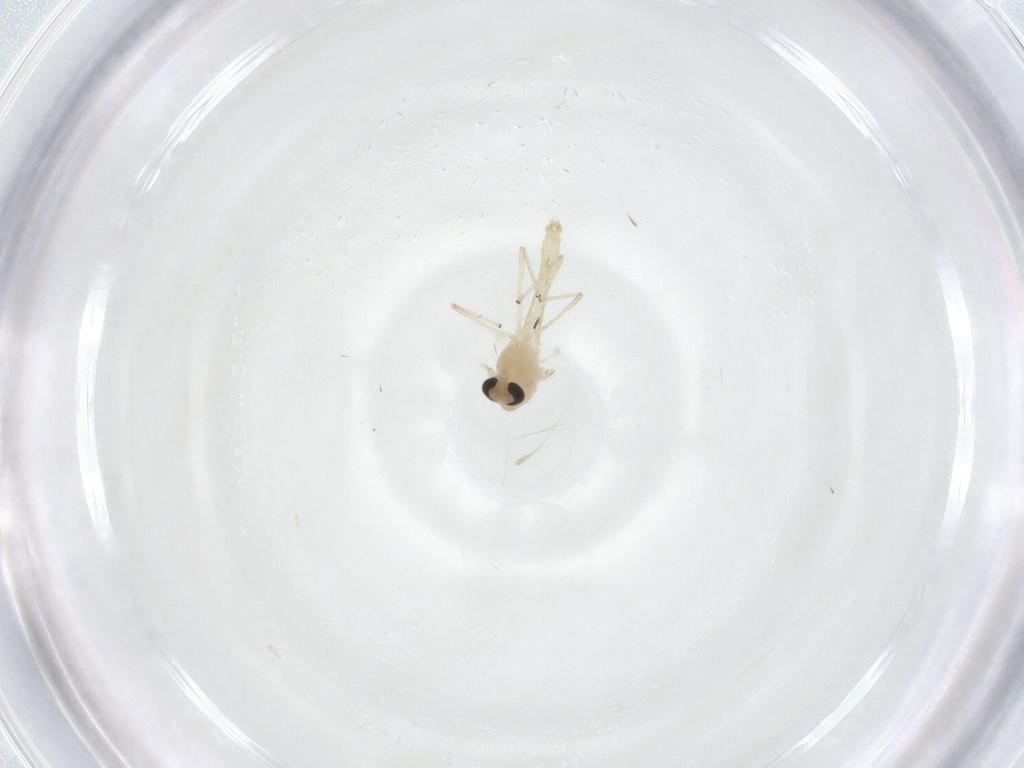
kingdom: Animalia
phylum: Arthropoda
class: Insecta
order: Diptera
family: Chironomidae
